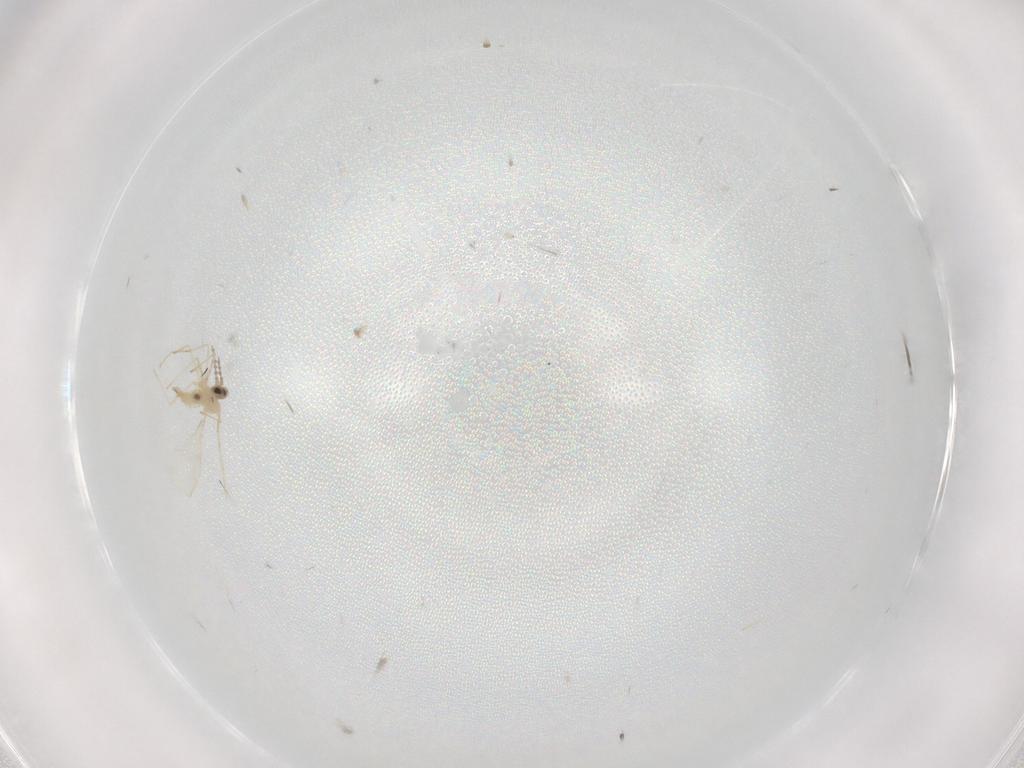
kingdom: Animalia
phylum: Arthropoda
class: Insecta
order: Diptera
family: Cecidomyiidae
